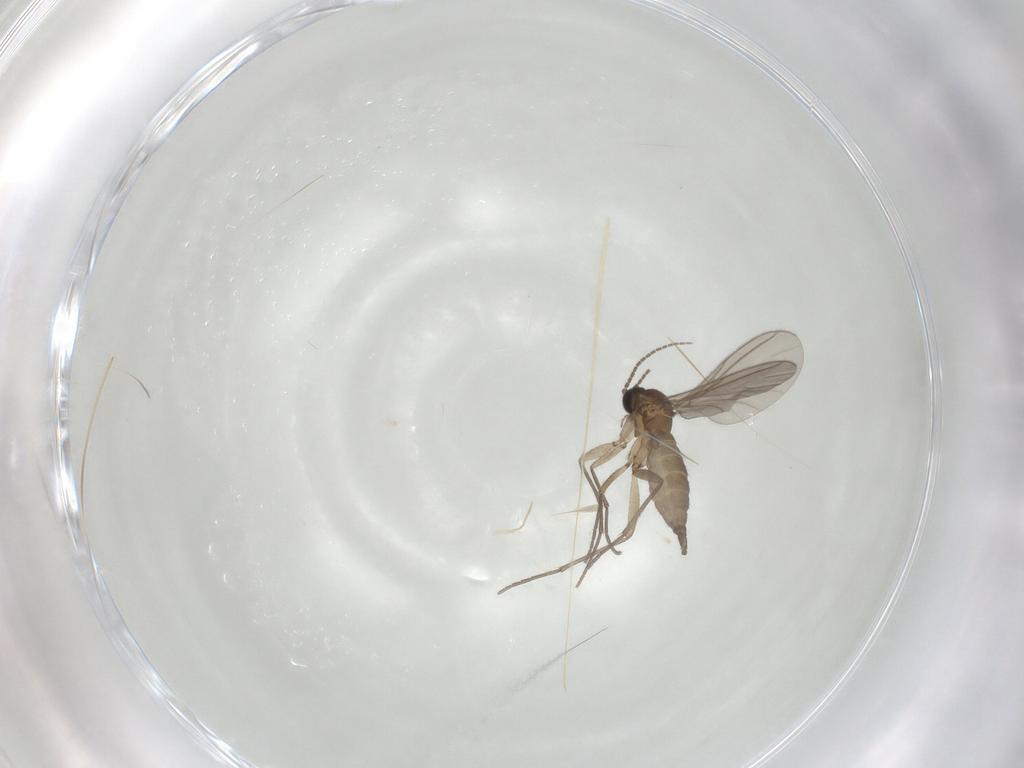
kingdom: Animalia
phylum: Arthropoda
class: Insecta
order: Diptera
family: Sciaridae
